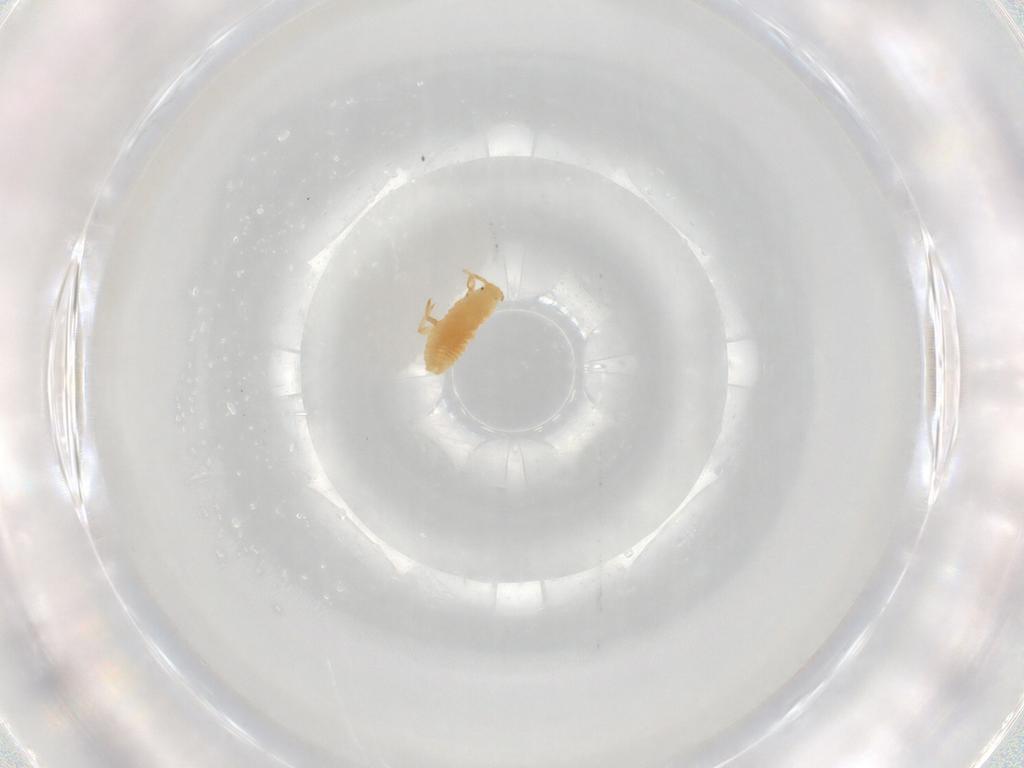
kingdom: Animalia
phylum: Arthropoda
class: Insecta
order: Hemiptera
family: Pseudococcidae
